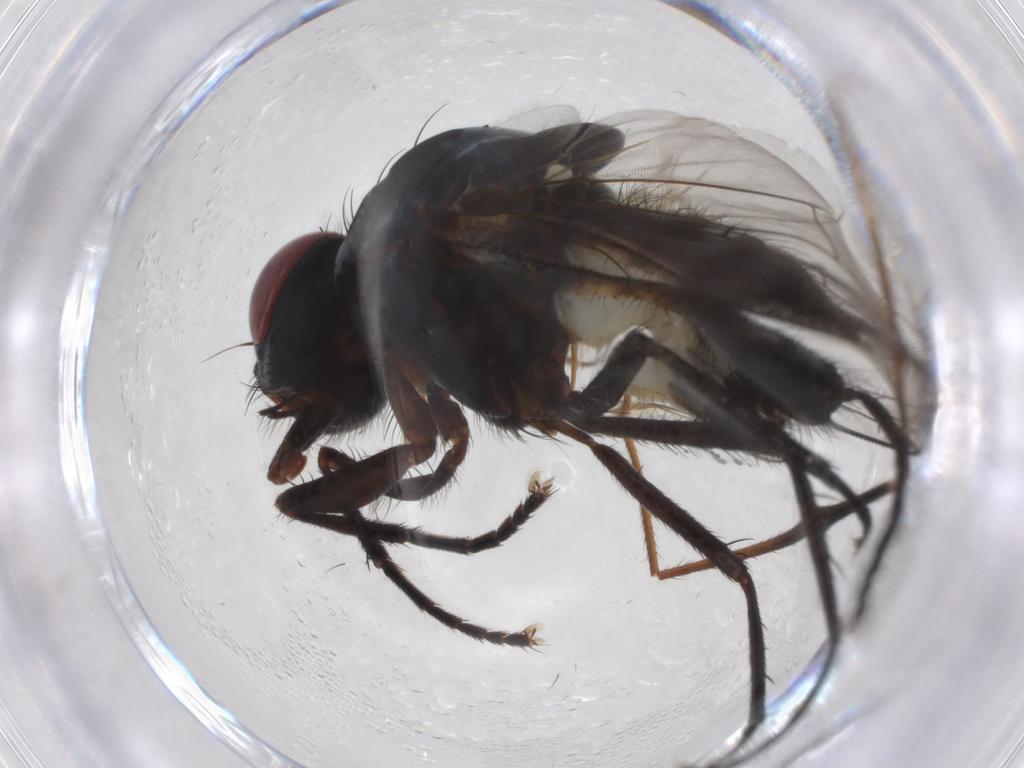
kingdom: Animalia
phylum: Arthropoda
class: Insecta
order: Diptera
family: Anthomyiidae
